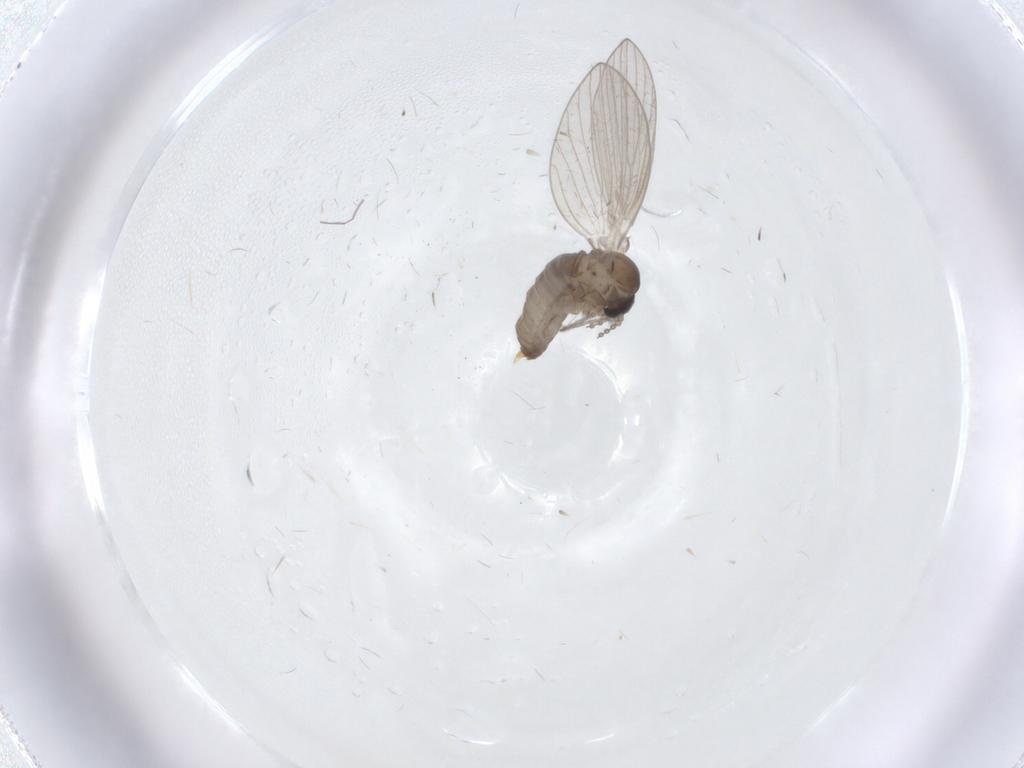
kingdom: Animalia
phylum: Arthropoda
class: Insecta
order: Diptera
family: Psychodidae
